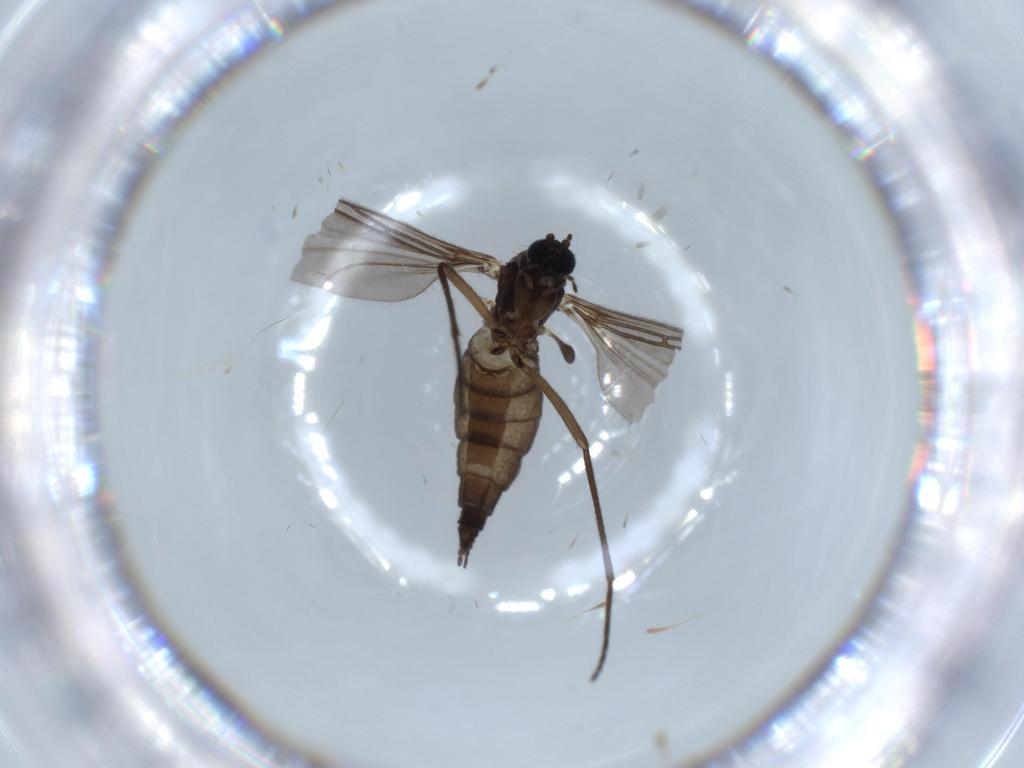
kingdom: Animalia
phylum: Arthropoda
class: Insecta
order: Diptera
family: Sciaridae
